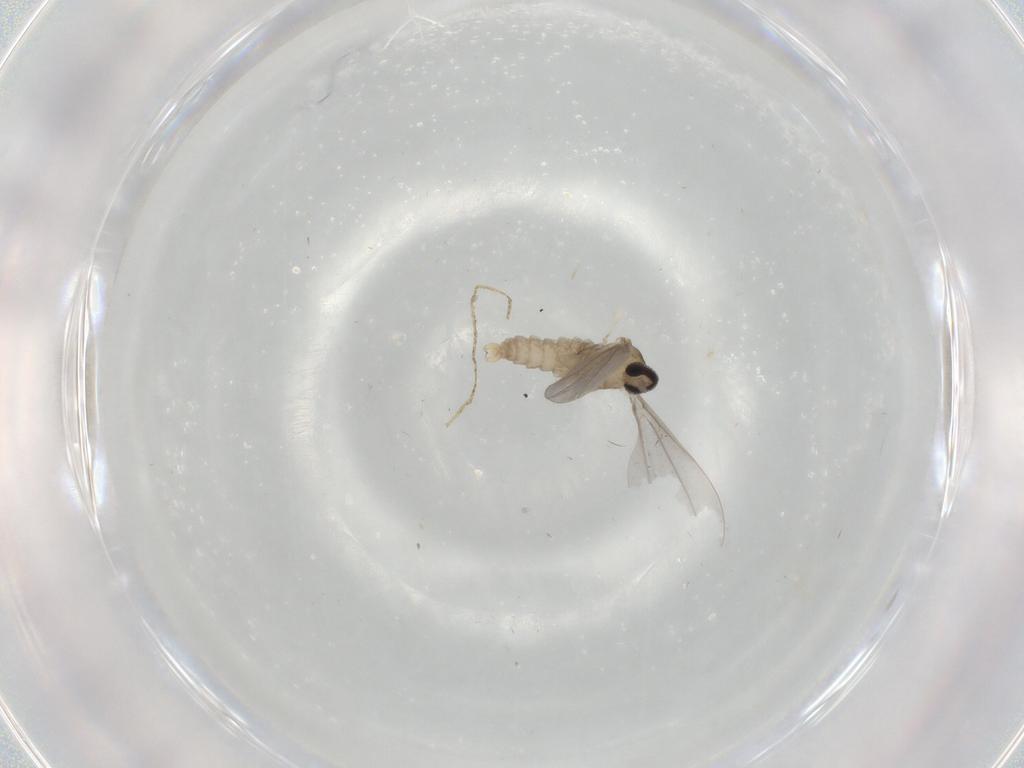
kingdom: Animalia
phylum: Arthropoda
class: Insecta
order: Diptera
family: Cecidomyiidae
